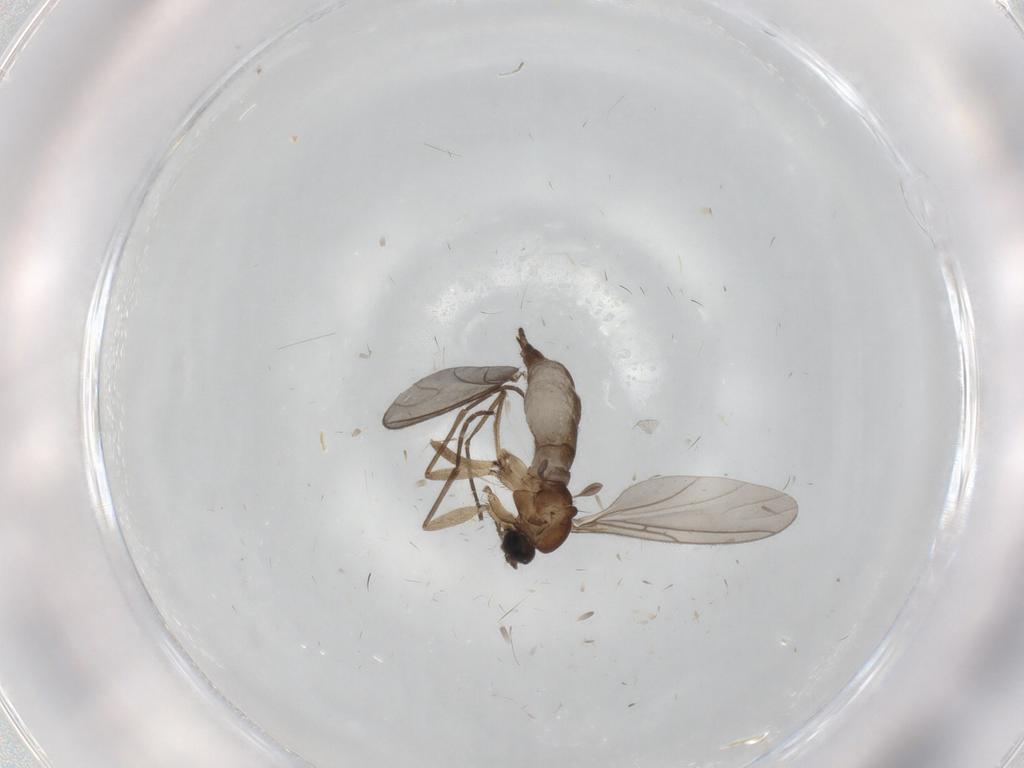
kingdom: Animalia
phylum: Arthropoda
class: Insecta
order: Diptera
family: Sciaridae
